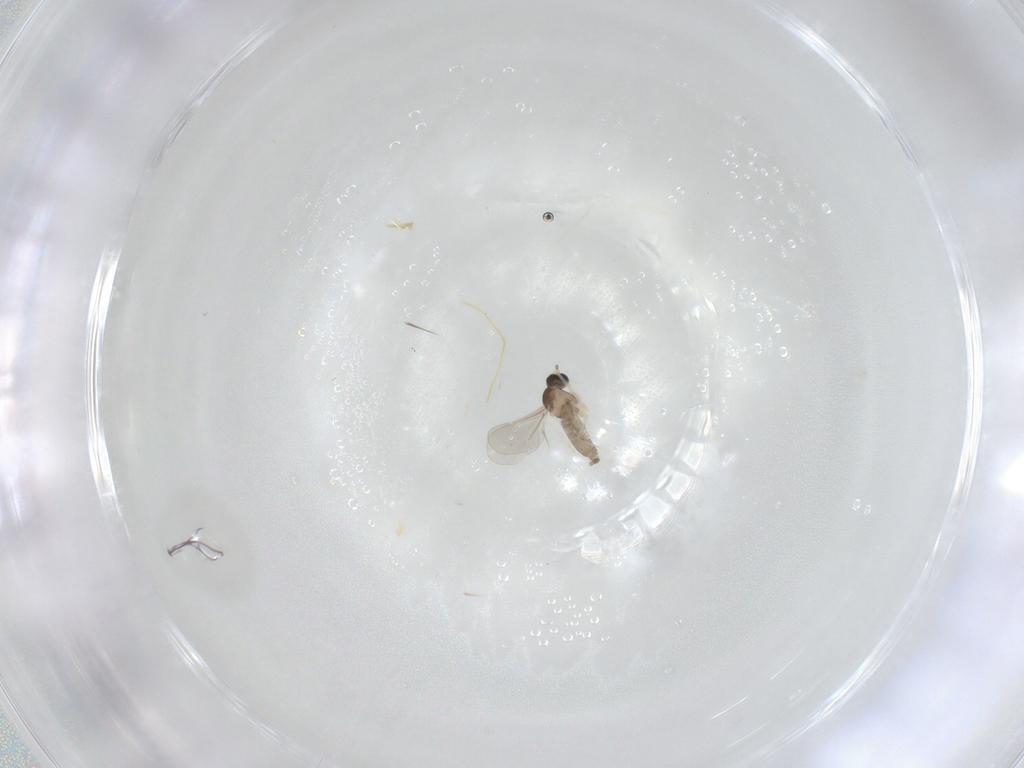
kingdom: Animalia
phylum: Arthropoda
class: Insecta
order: Diptera
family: Cecidomyiidae
